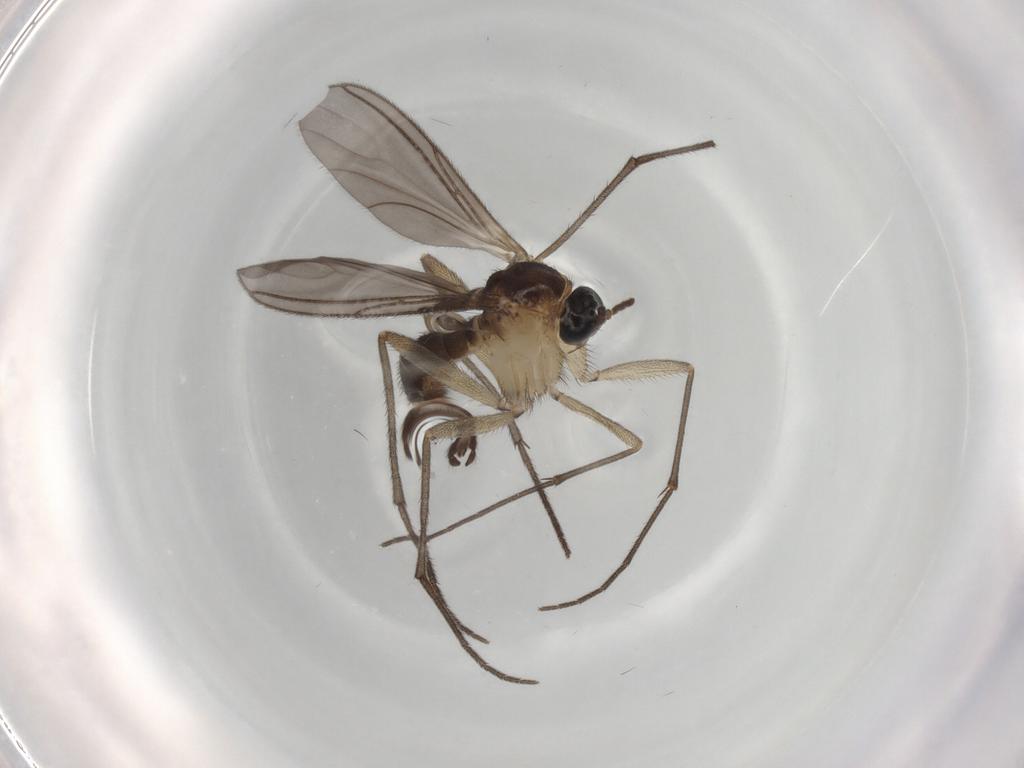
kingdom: Animalia
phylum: Arthropoda
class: Insecta
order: Diptera
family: Sciaridae
